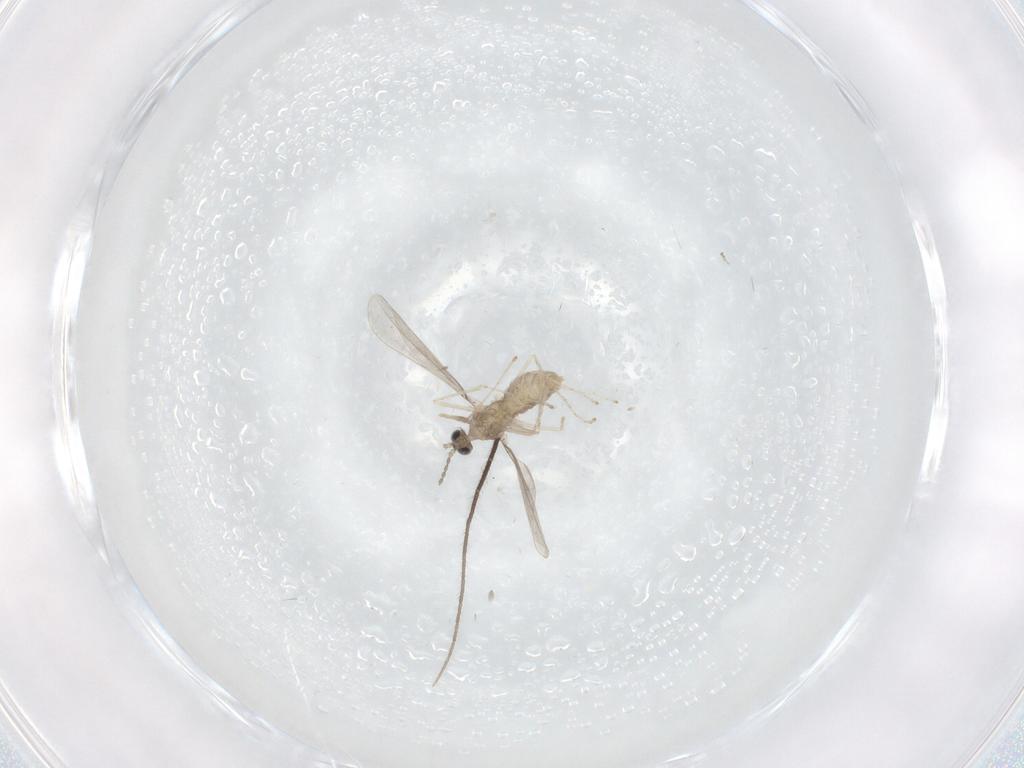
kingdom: Animalia
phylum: Arthropoda
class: Insecta
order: Diptera
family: Cecidomyiidae
